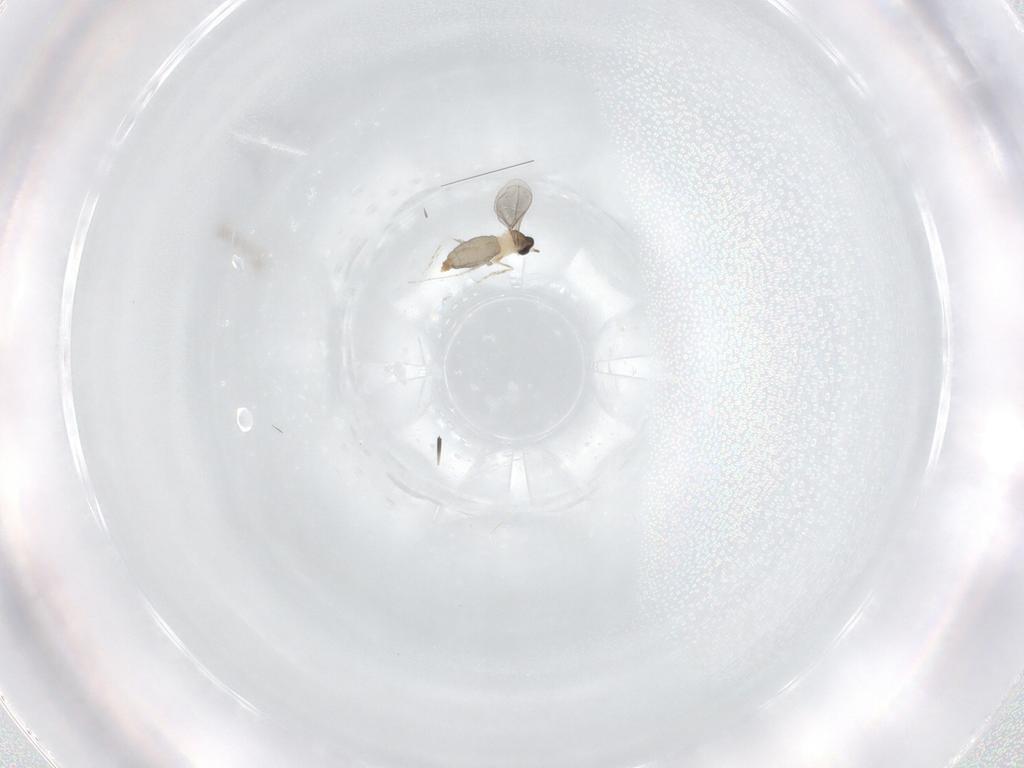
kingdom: Animalia
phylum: Arthropoda
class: Insecta
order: Diptera
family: Cecidomyiidae
